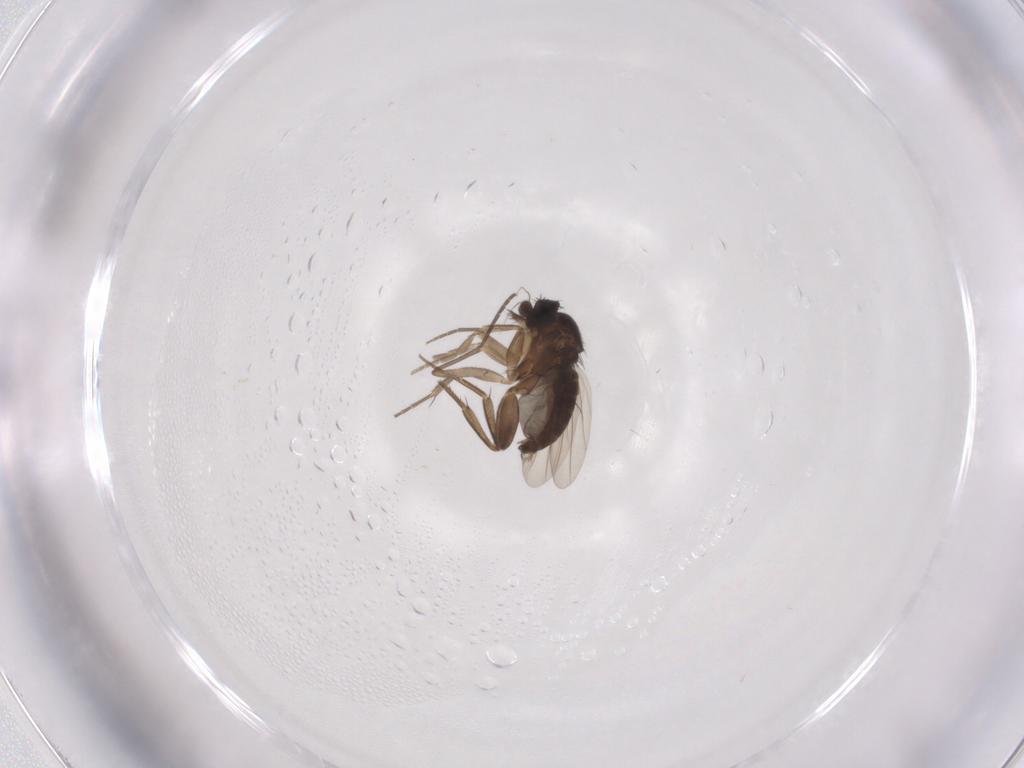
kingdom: Animalia
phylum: Arthropoda
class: Insecta
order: Diptera
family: Phoridae
